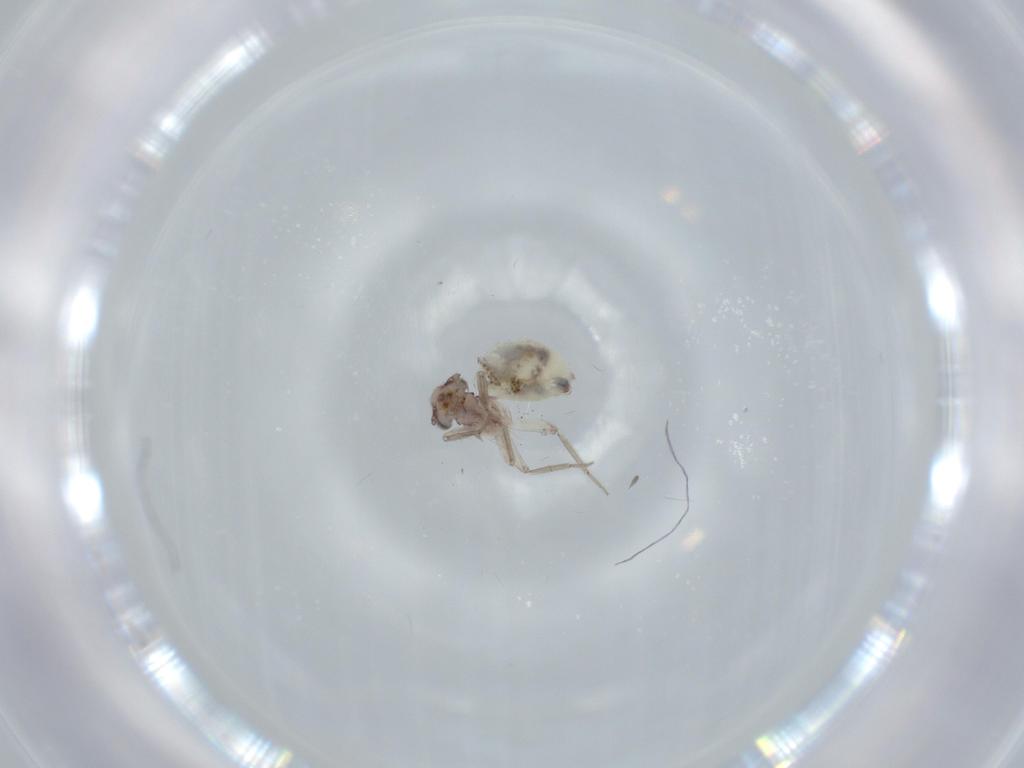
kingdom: Animalia
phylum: Arthropoda
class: Insecta
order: Psocodea
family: Lepidopsocidae
